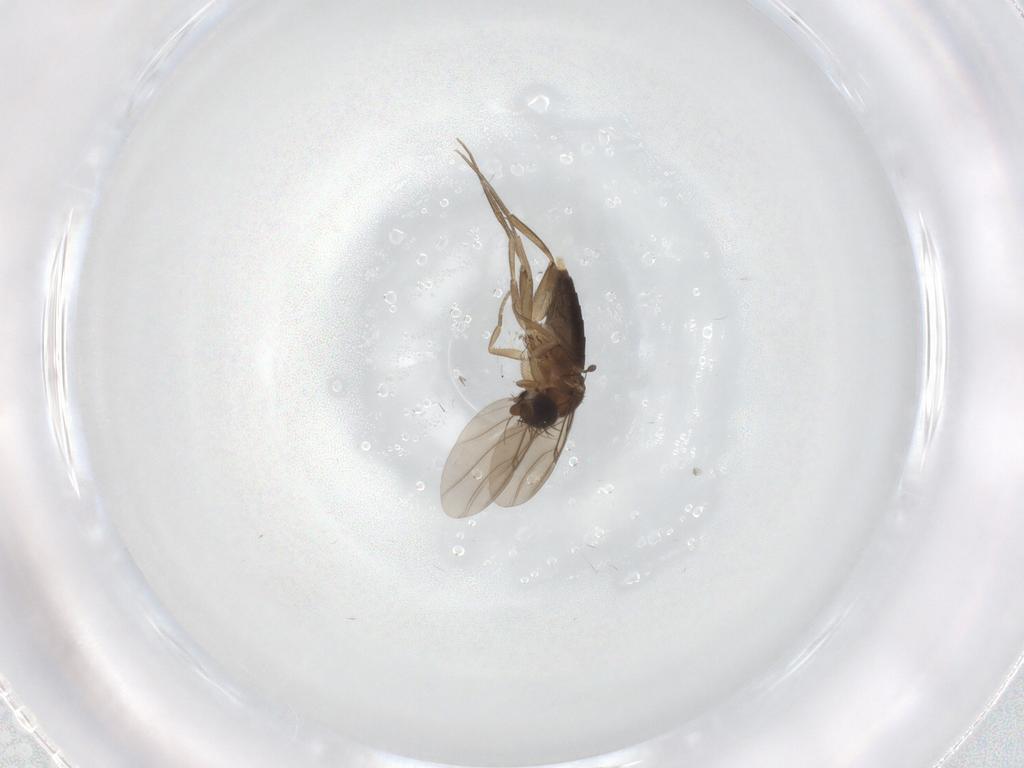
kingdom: Animalia
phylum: Arthropoda
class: Insecta
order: Diptera
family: Phoridae
